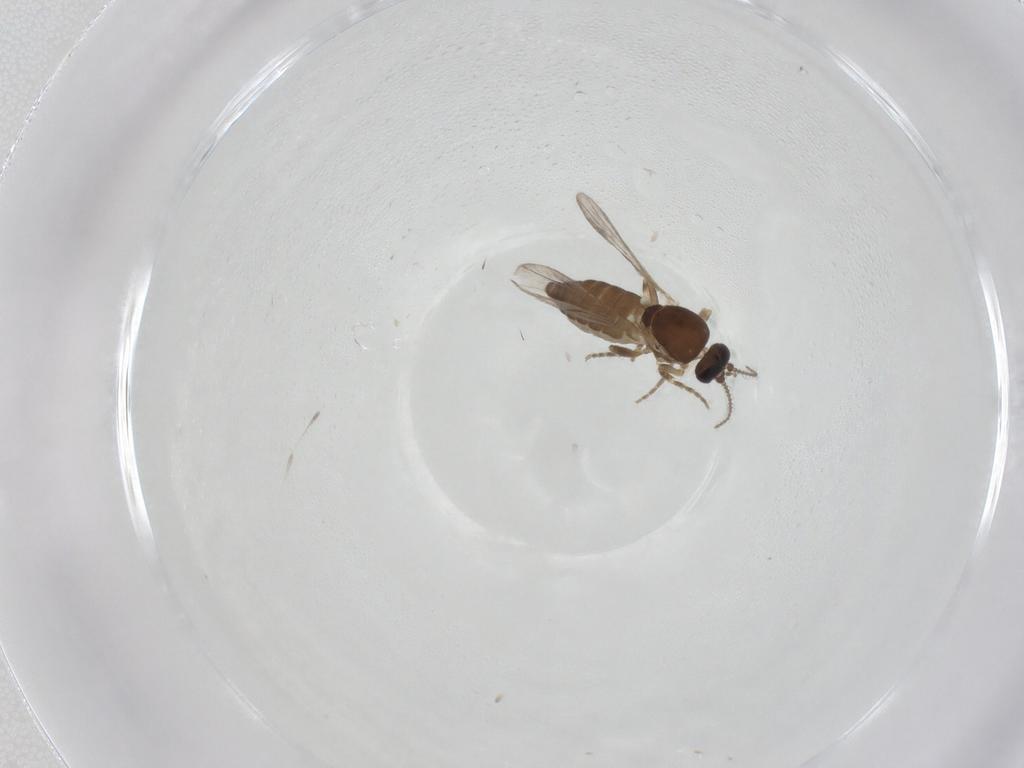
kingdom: Animalia
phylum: Arthropoda
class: Insecta
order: Diptera
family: Ceratopogonidae
